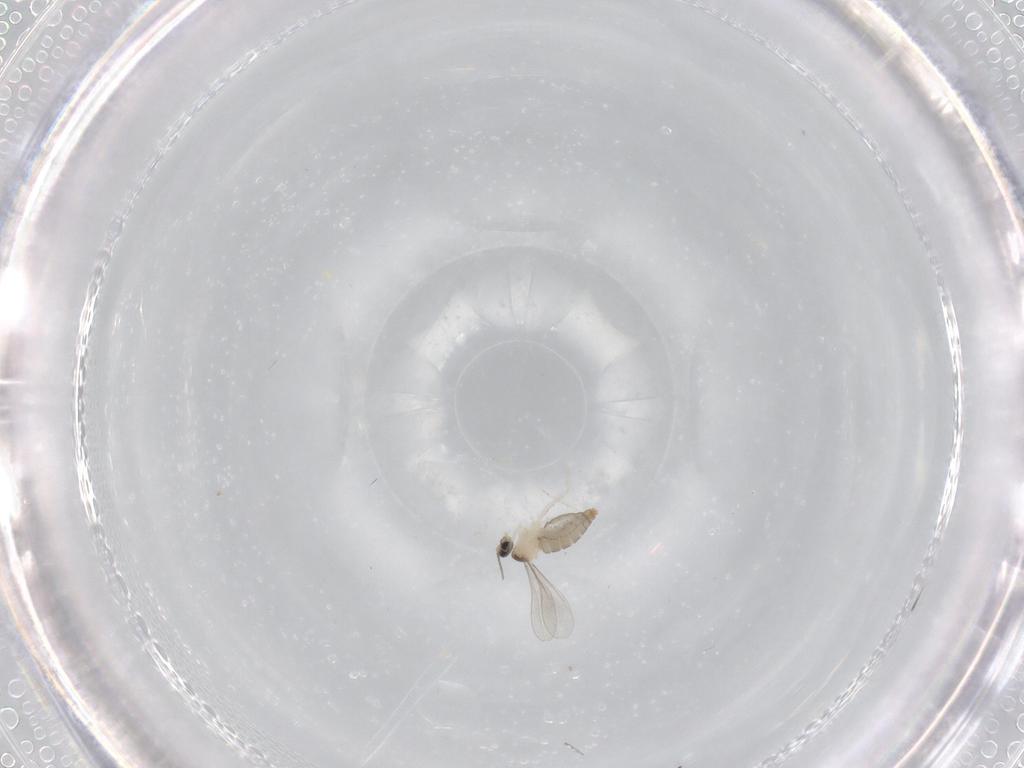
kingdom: Animalia
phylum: Arthropoda
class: Insecta
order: Diptera
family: Cecidomyiidae
